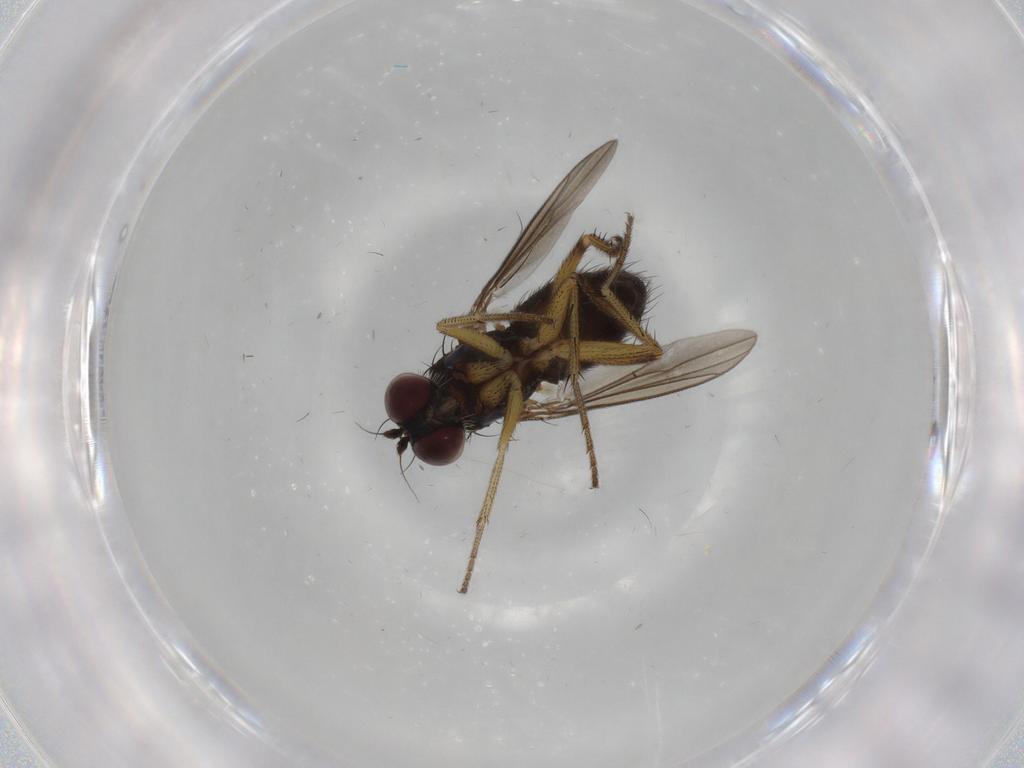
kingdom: Animalia
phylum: Arthropoda
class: Insecta
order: Diptera
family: Dolichopodidae
